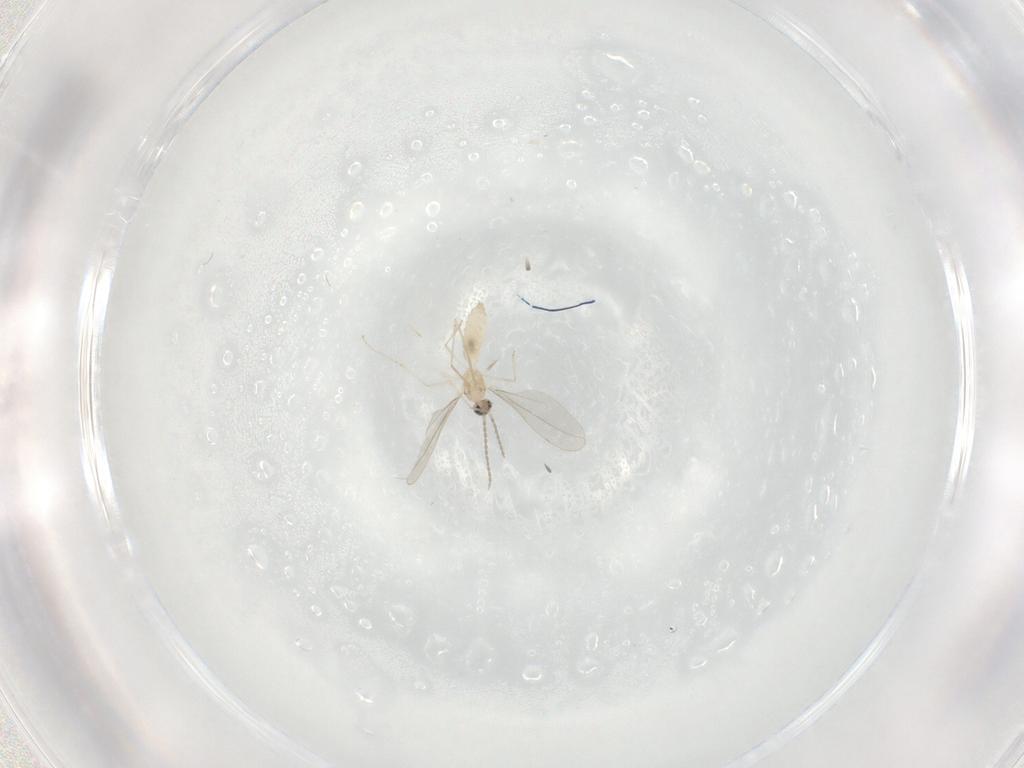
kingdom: Animalia
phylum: Arthropoda
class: Insecta
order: Diptera
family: Cecidomyiidae
